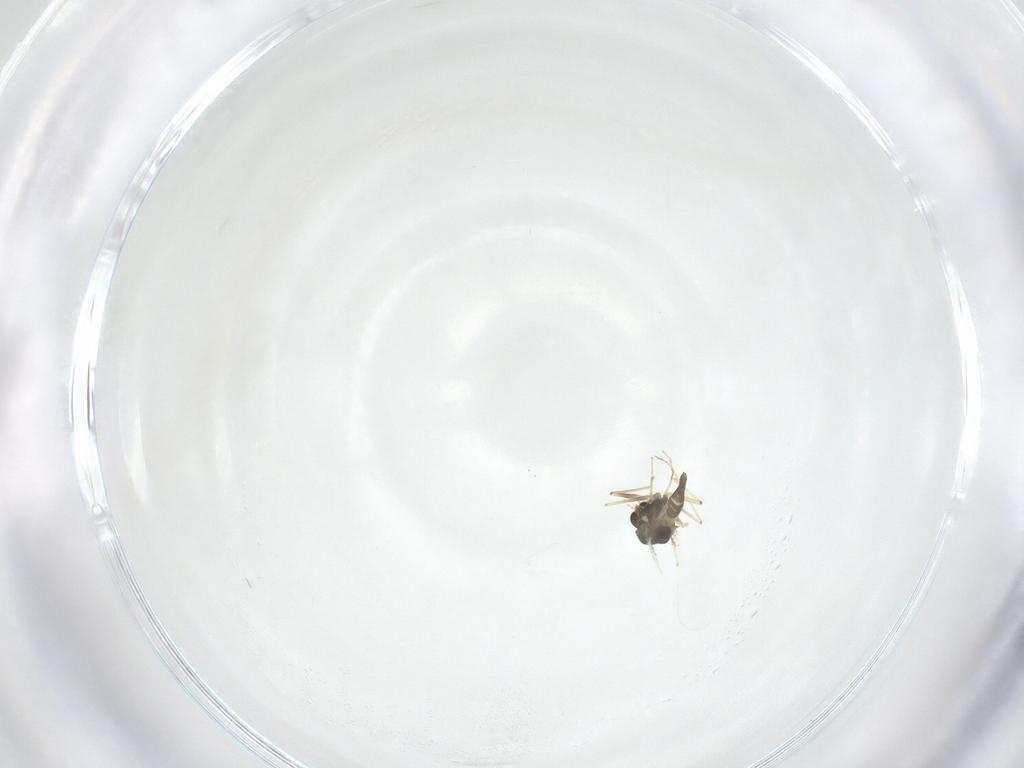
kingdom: Animalia
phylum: Arthropoda
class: Insecta
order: Diptera
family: Chironomidae
